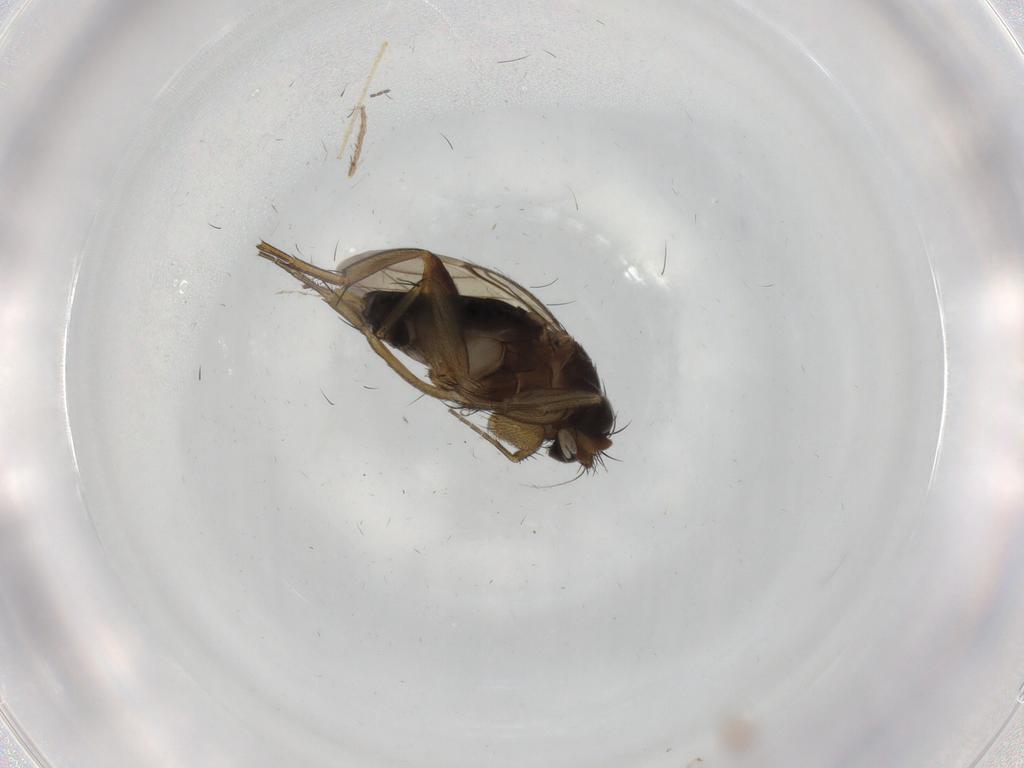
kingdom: Animalia
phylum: Arthropoda
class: Insecta
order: Diptera
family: Phoridae
